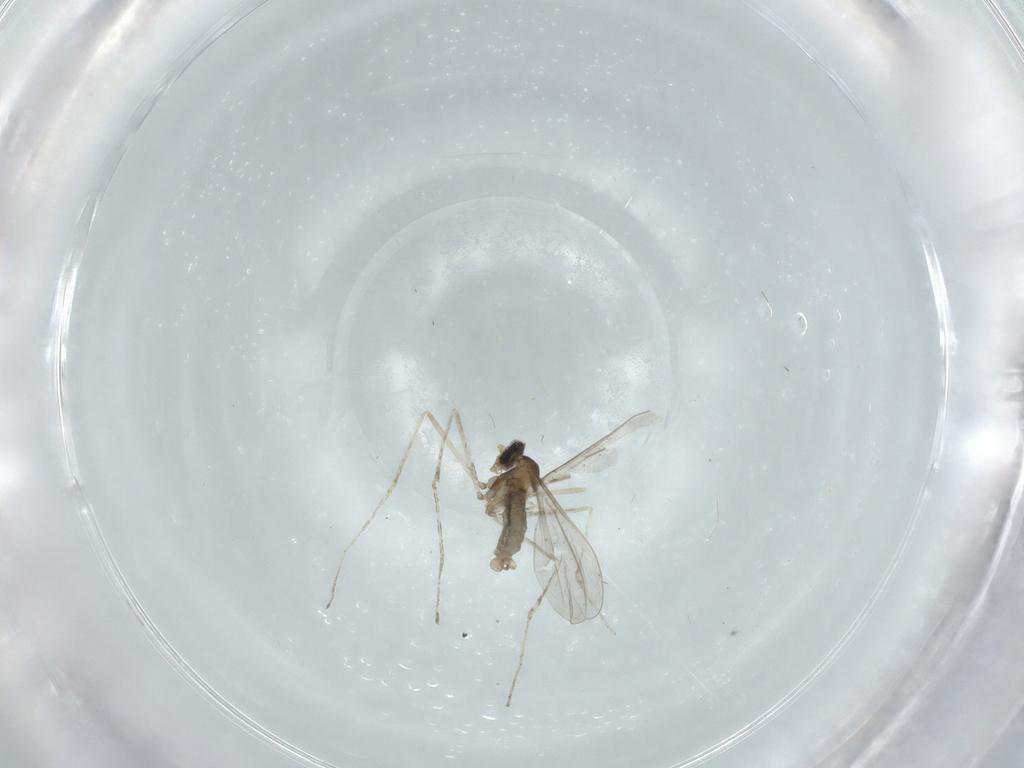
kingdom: Animalia
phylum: Arthropoda
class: Insecta
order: Diptera
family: Cecidomyiidae
